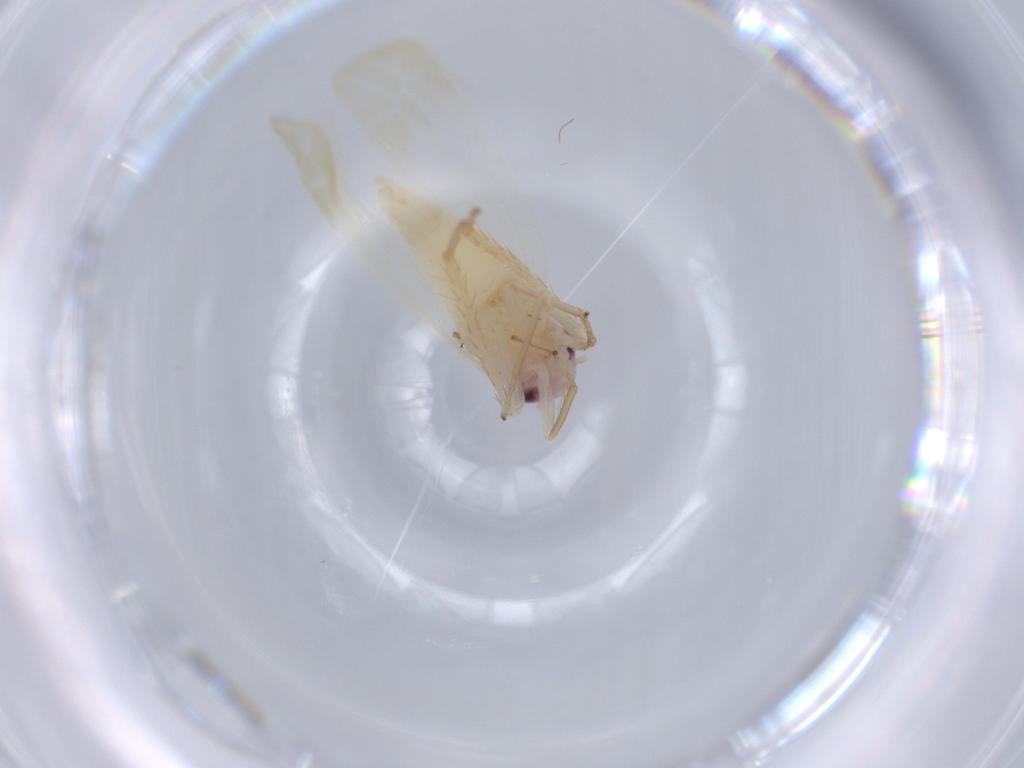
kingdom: Animalia
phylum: Arthropoda
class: Insecta
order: Hemiptera
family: Cicadellidae
